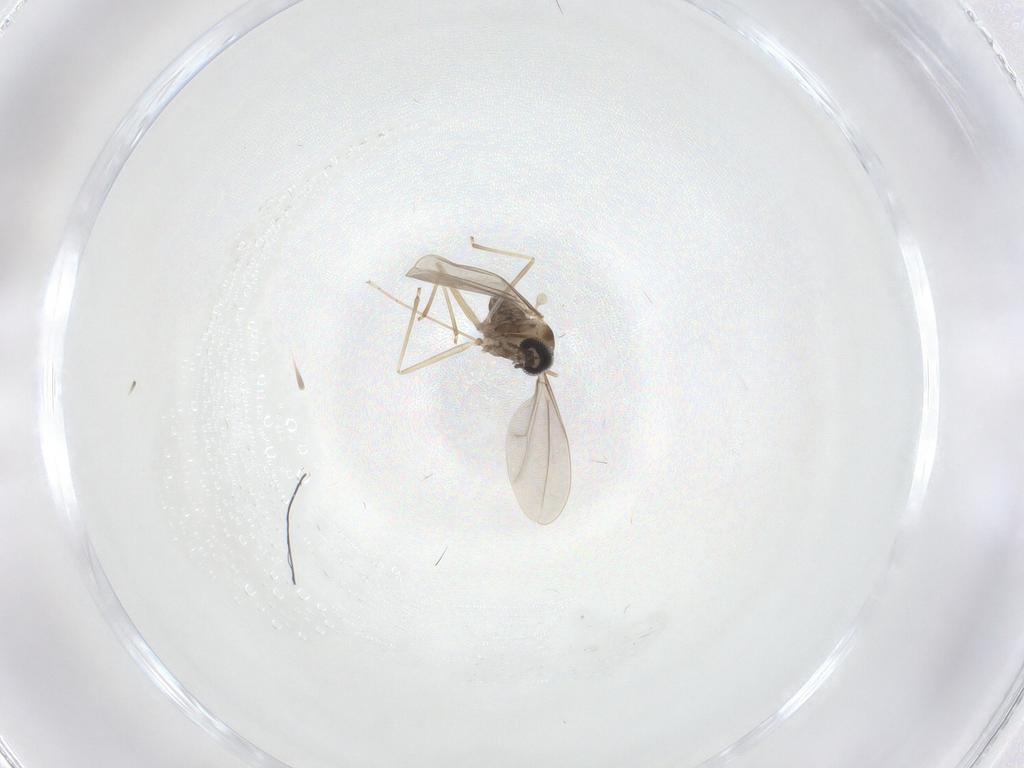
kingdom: Animalia
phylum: Arthropoda
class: Insecta
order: Diptera
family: Cecidomyiidae
